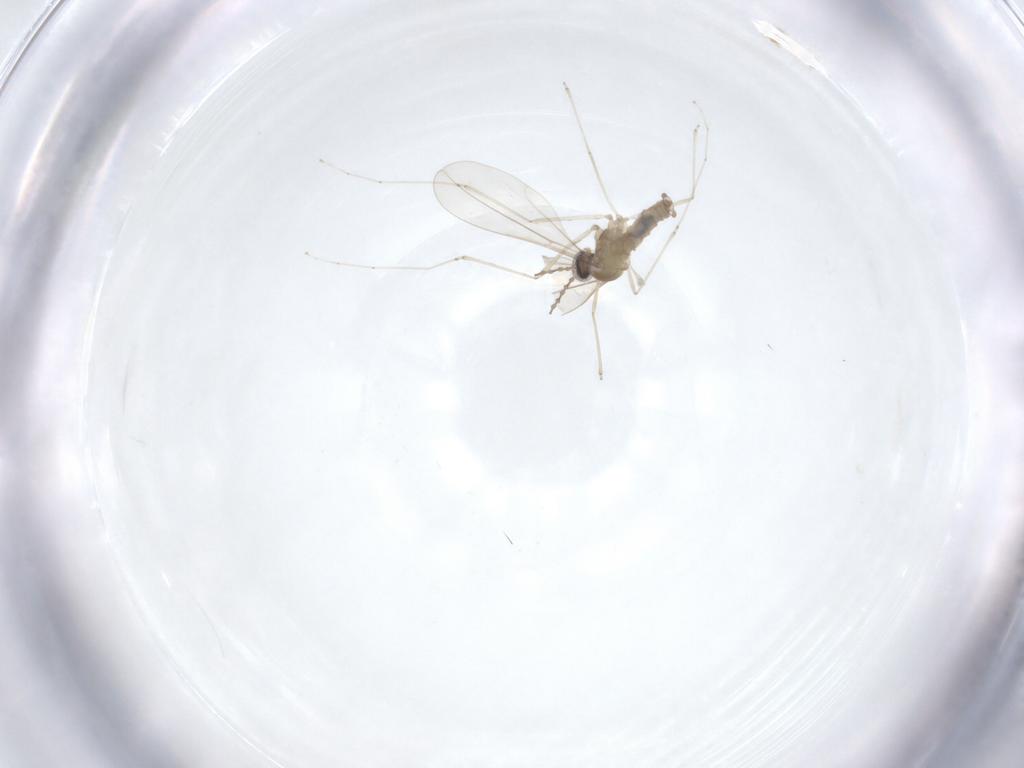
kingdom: Animalia
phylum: Arthropoda
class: Insecta
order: Diptera
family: Cecidomyiidae
